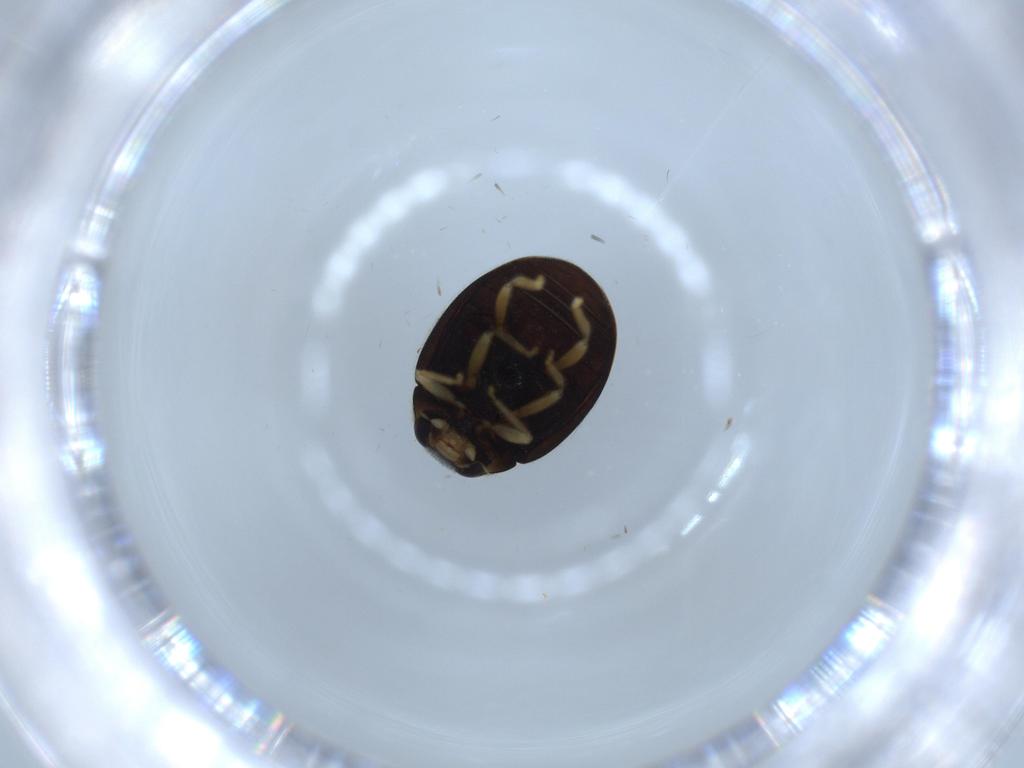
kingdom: Animalia
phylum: Arthropoda
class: Insecta
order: Coleoptera
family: Coccinellidae
